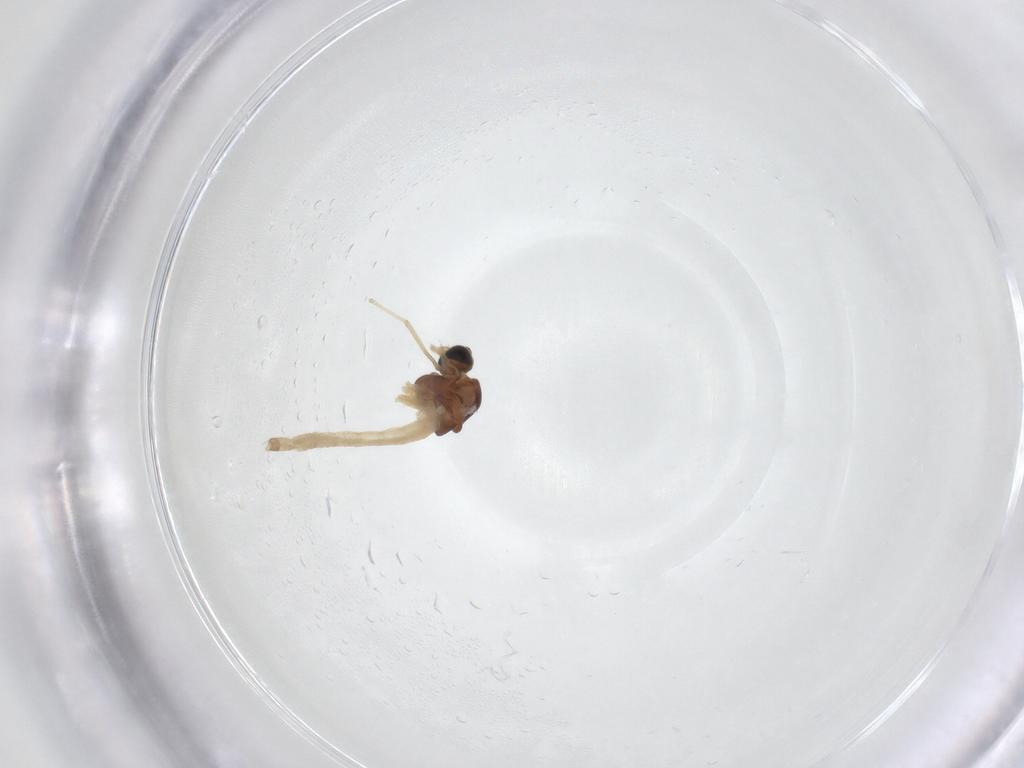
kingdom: Animalia
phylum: Arthropoda
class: Insecta
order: Diptera
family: Chironomidae
